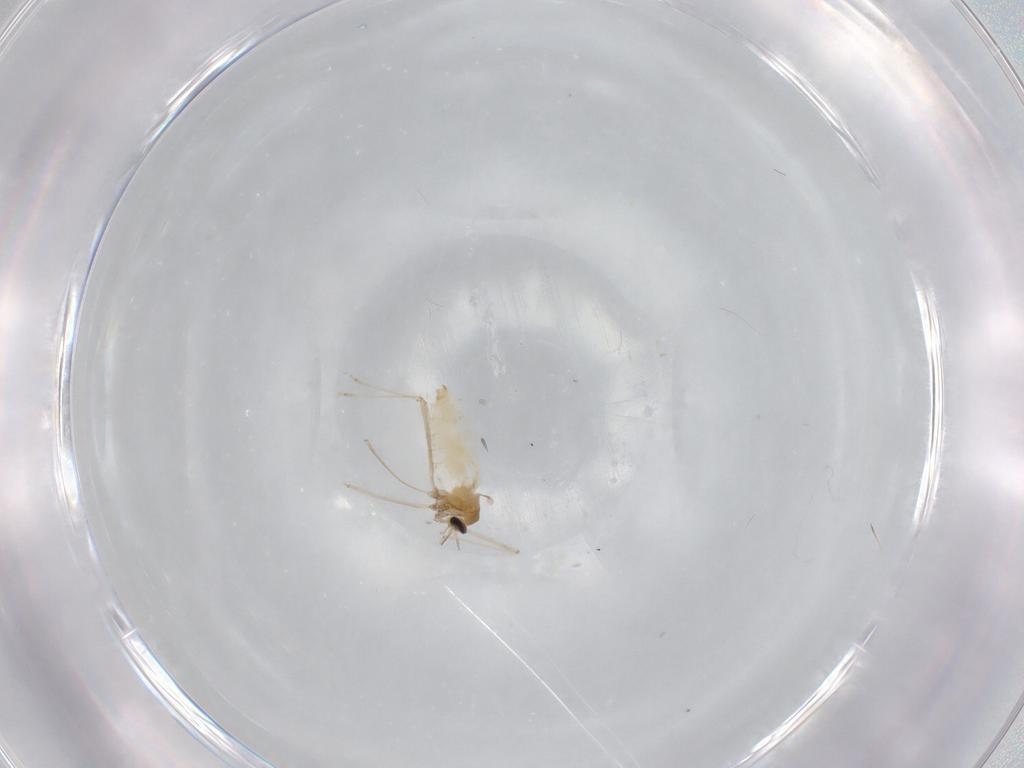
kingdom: Animalia
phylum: Arthropoda
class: Insecta
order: Diptera
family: Cecidomyiidae
